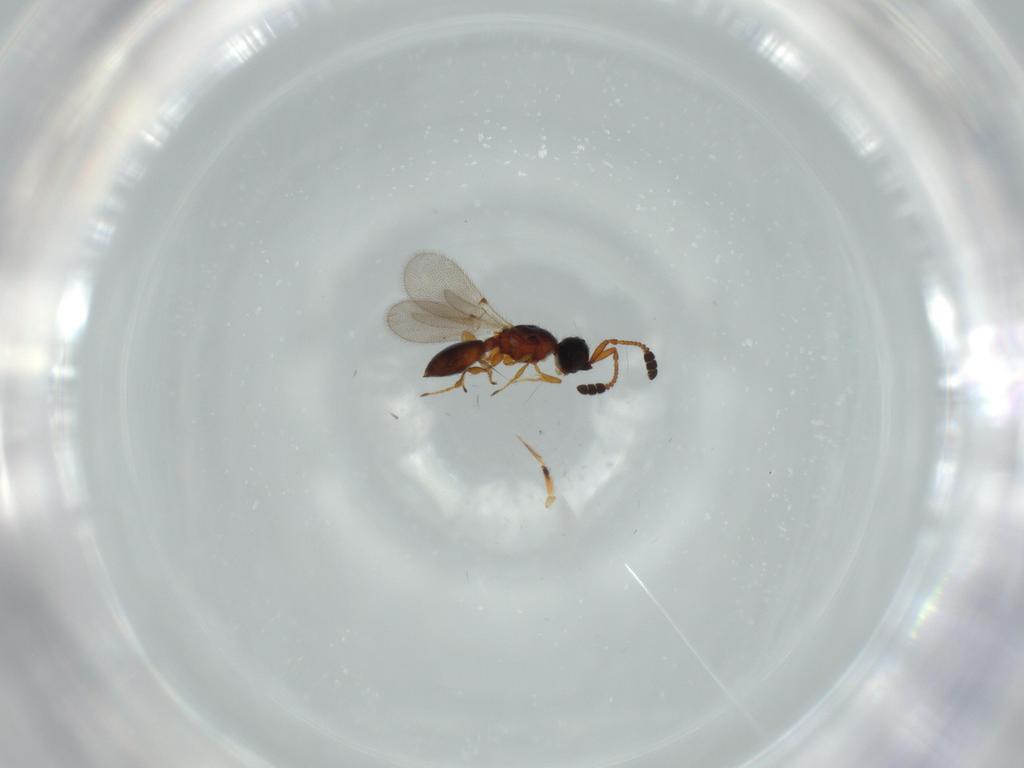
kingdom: Animalia
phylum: Arthropoda
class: Insecta
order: Hymenoptera
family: Diapriidae
